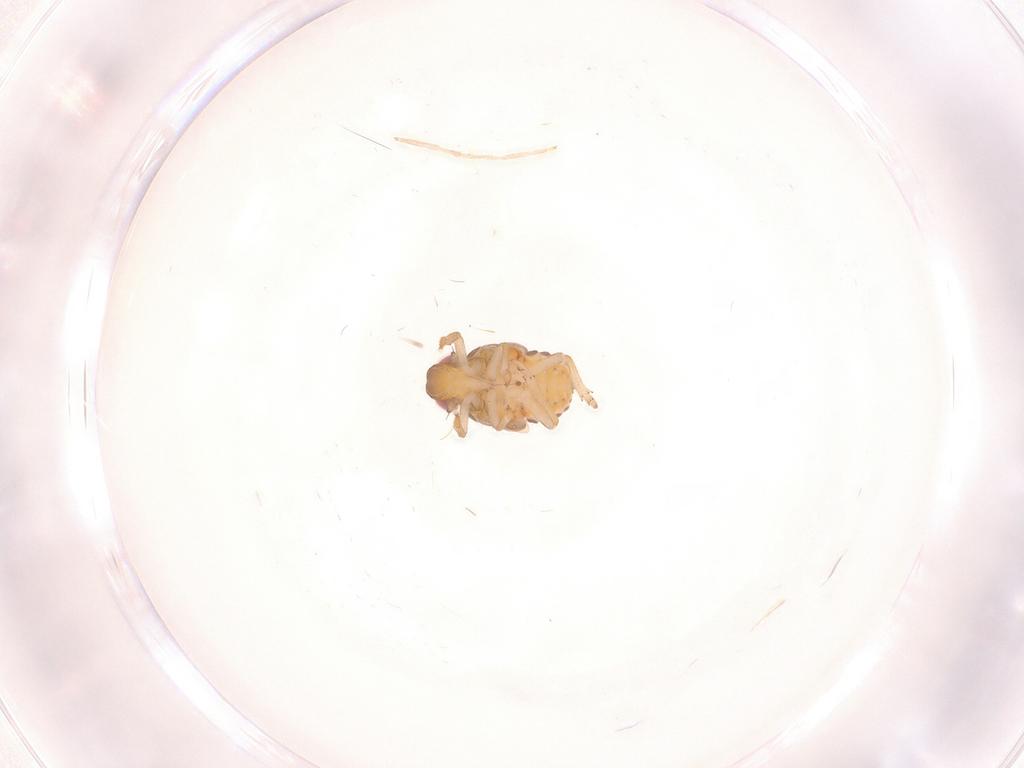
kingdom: Animalia
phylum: Arthropoda
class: Insecta
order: Hemiptera
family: Issidae
